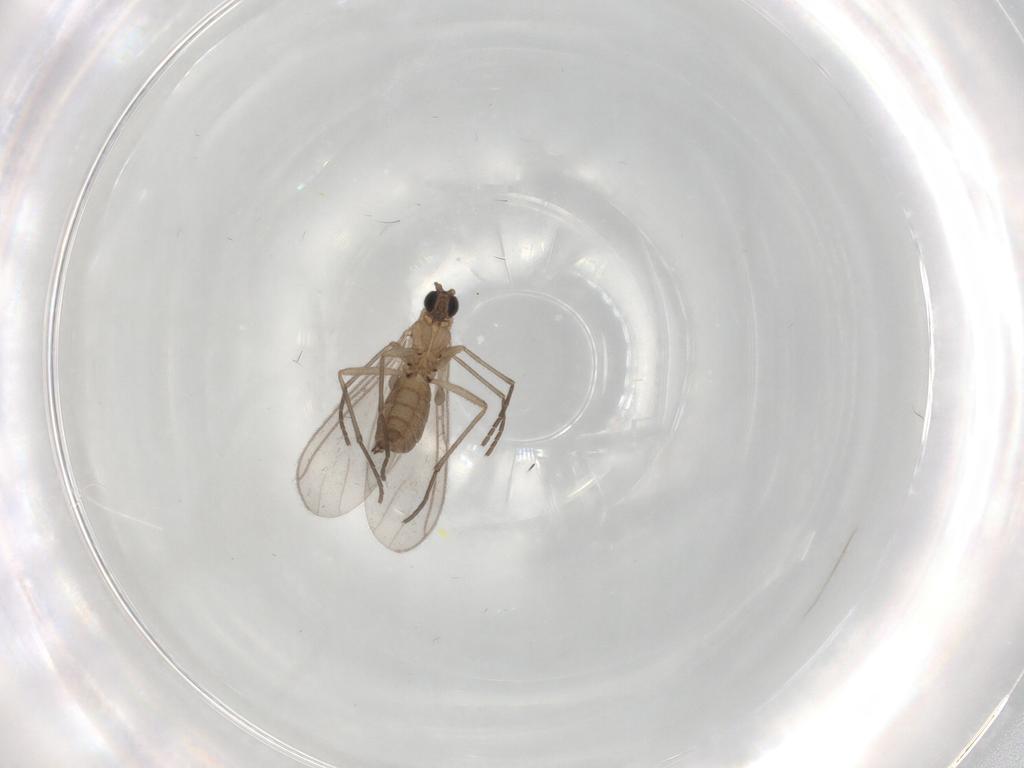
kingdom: Animalia
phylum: Arthropoda
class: Insecta
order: Diptera
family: Sciaridae
